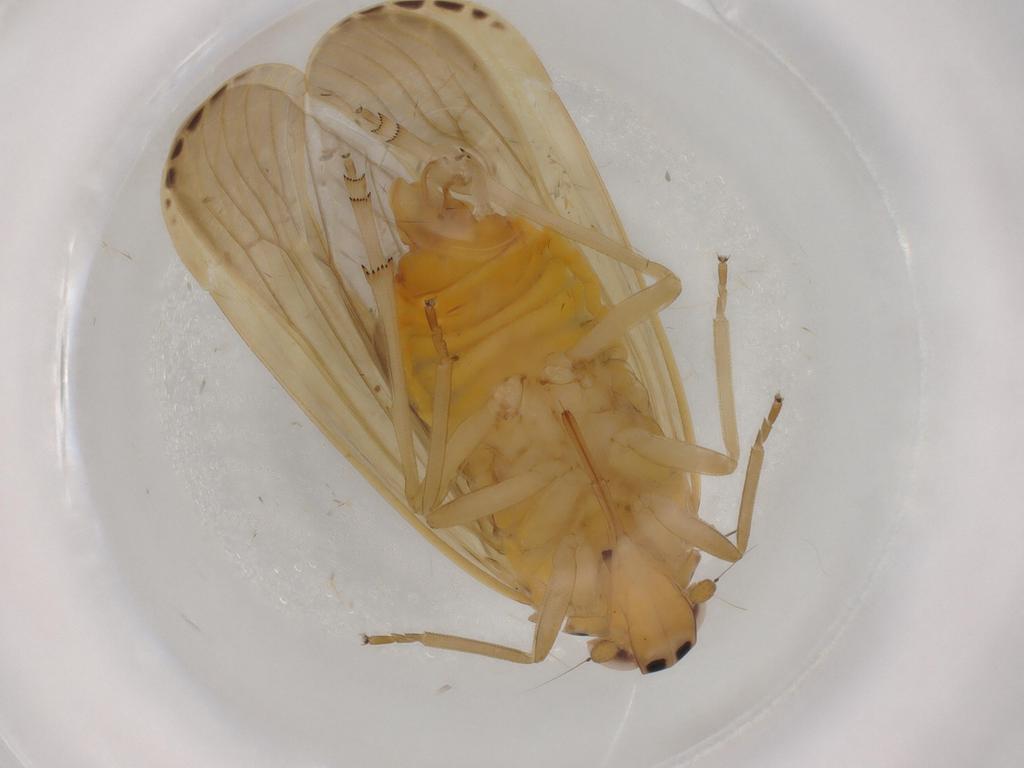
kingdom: Animalia
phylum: Arthropoda
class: Insecta
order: Hemiptera
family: Achilidae
